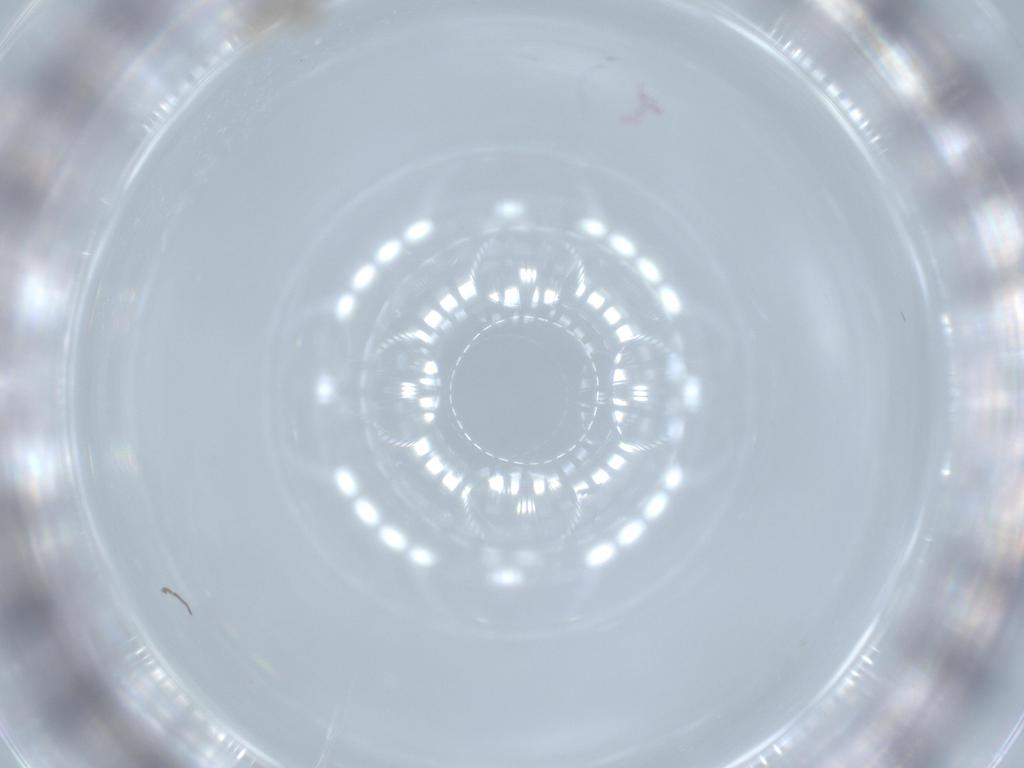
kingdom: Animalia
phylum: Arthropoda
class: Insecta
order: Diptera
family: Cecidomyiidae
